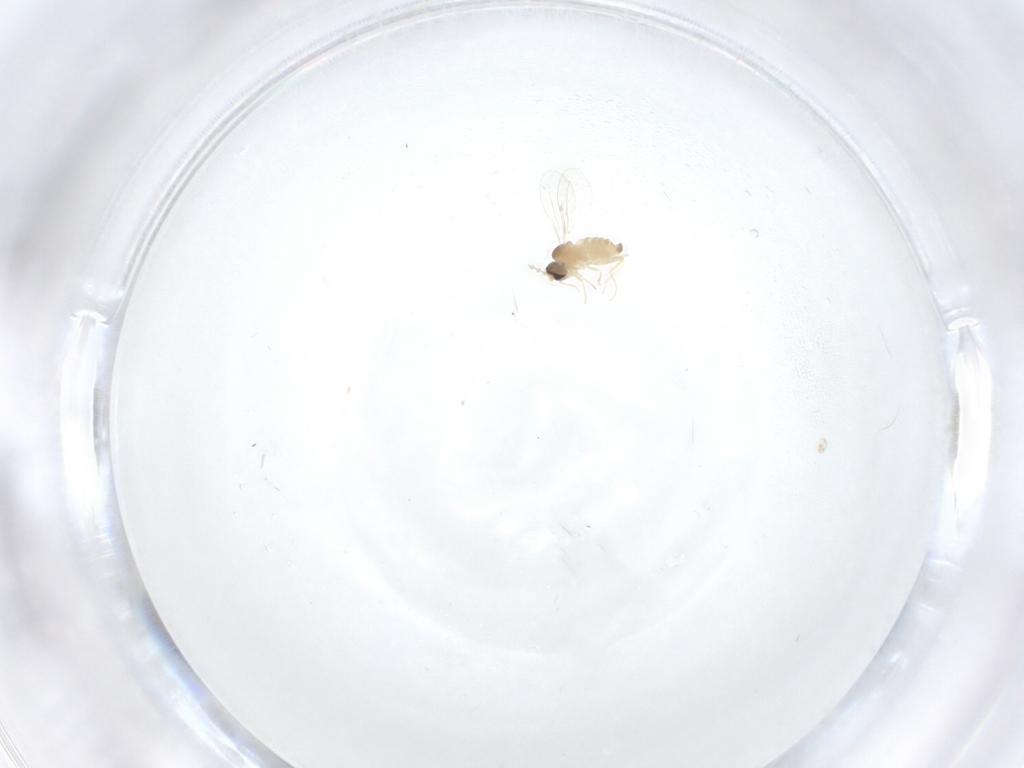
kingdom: Animalia
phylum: Arthropoda
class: Insecta
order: Diptera
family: Cecidomyiidae
